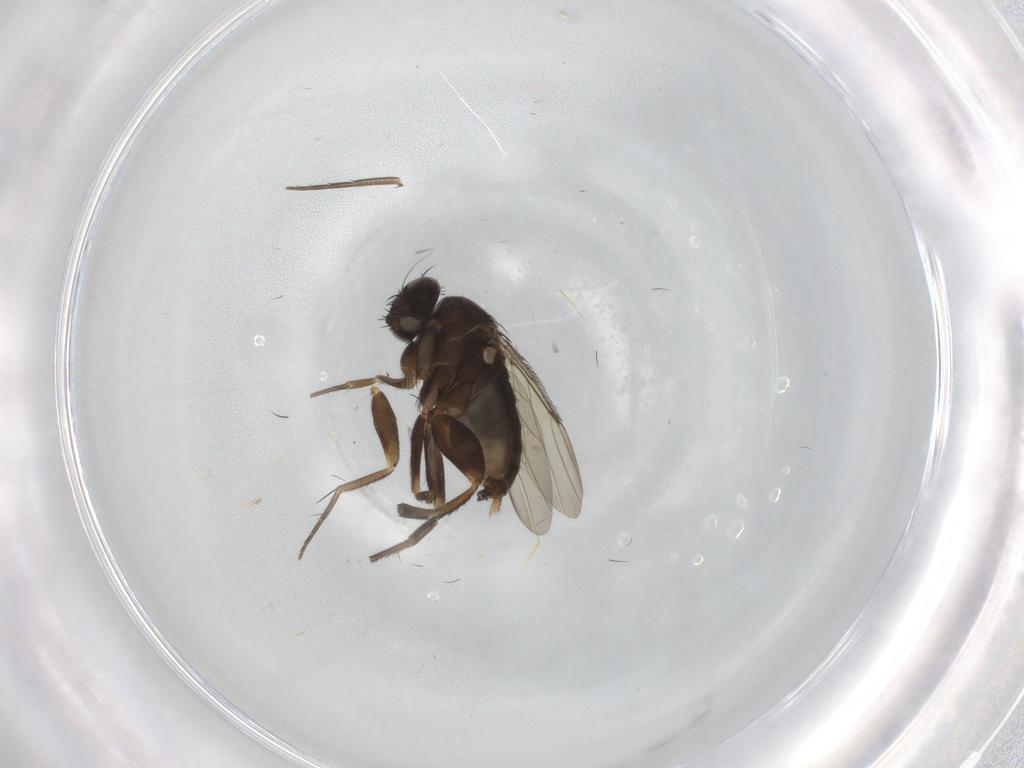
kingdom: Animalia
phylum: Arthropoda
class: Insecta
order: Diptera
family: Phoridae
